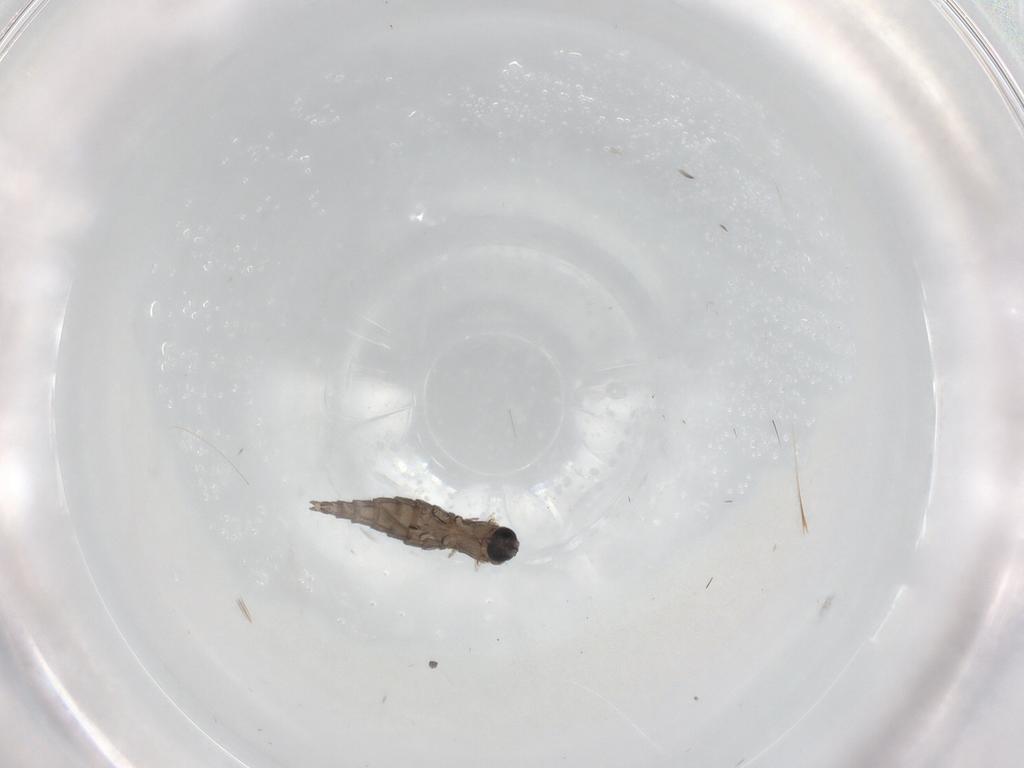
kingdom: Animalia
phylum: Arthropoda
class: Insecta
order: Diptera
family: Sciaridae
